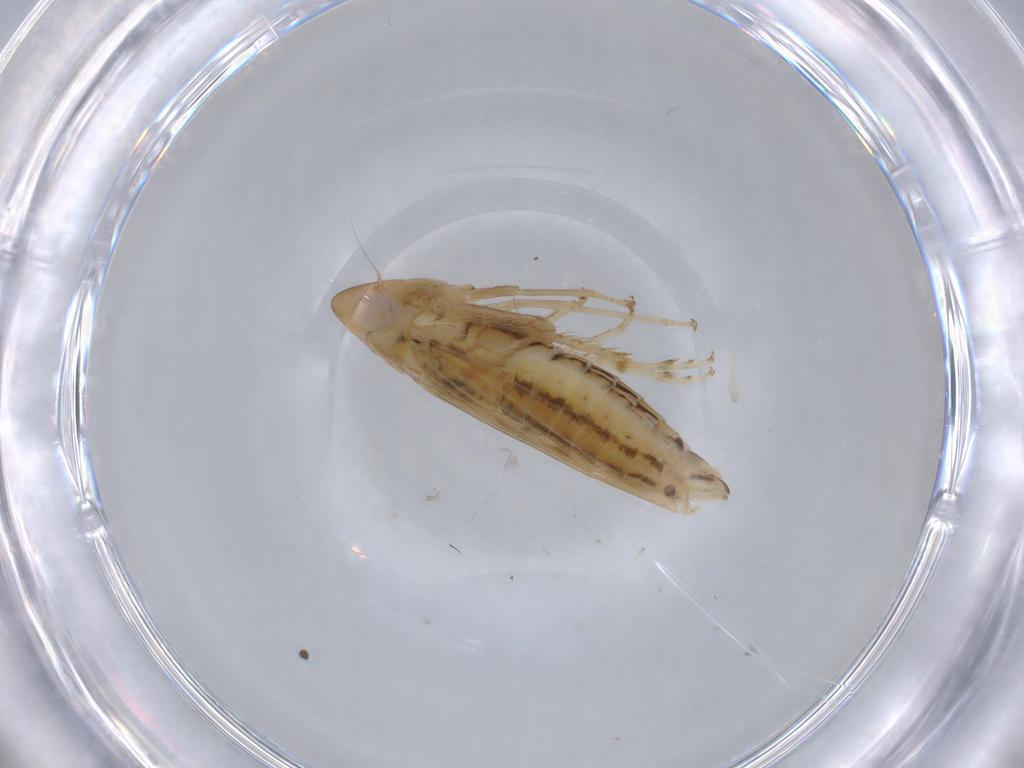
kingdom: Animalia
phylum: Arthropoda
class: Insecta
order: Hemiptera
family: Cicadellidae
